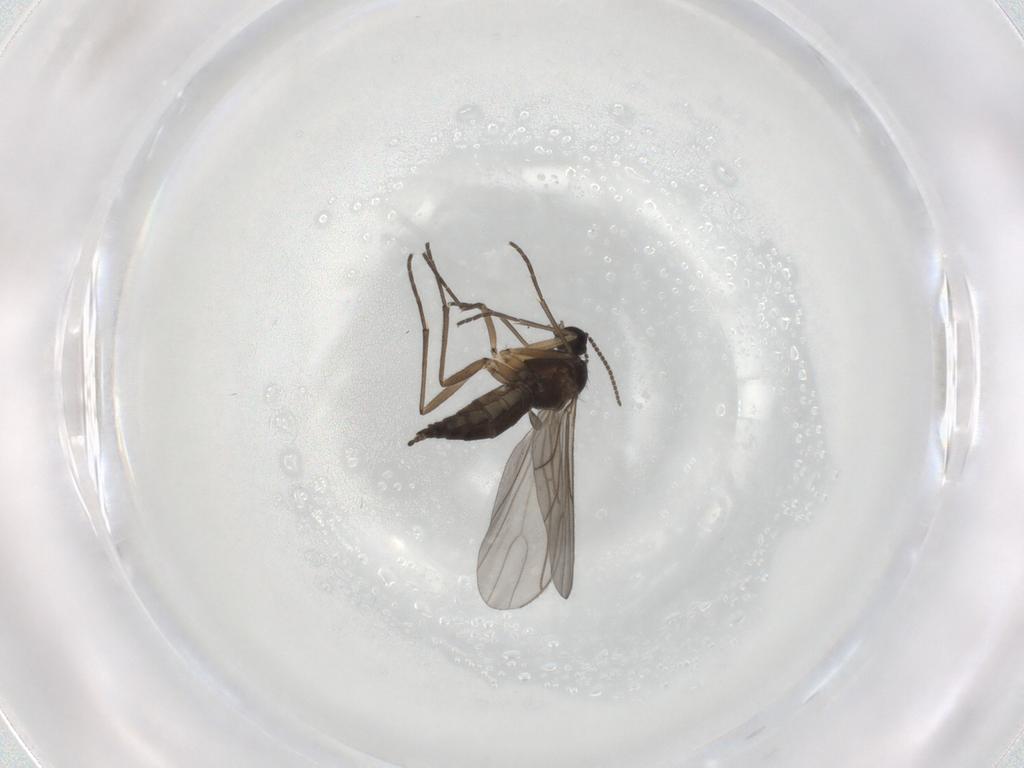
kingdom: Animalia
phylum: Arthropoda
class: Insecta
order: Diptera
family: Sciaridae
